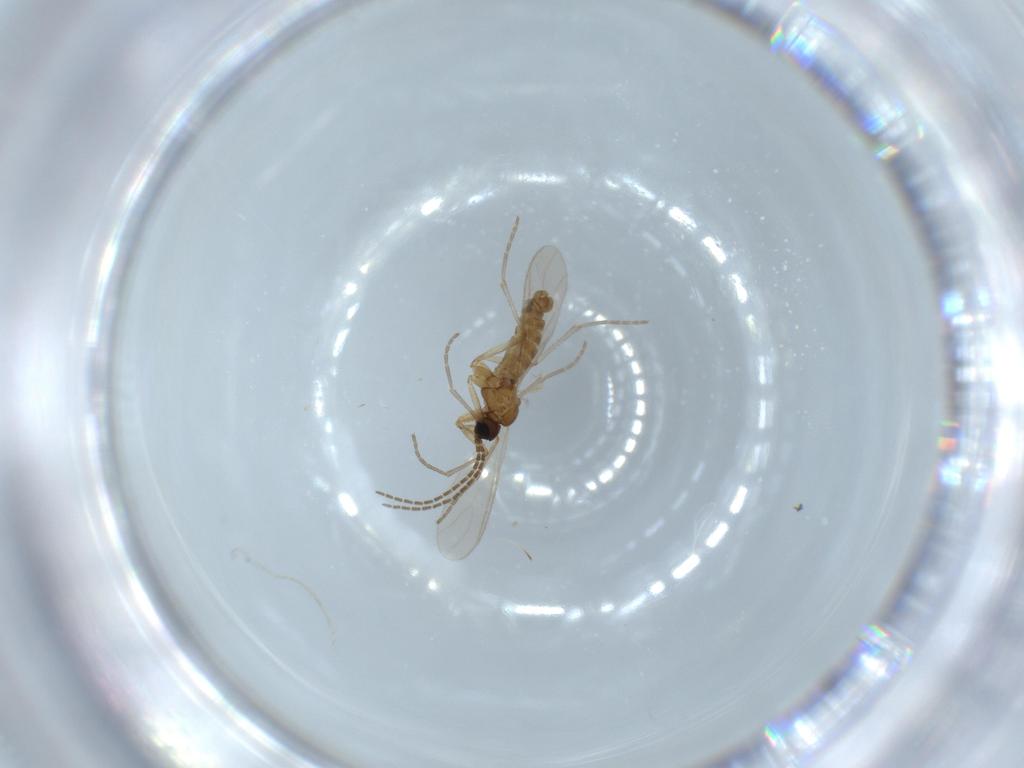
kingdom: Animalia
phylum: Arthropoda
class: Insecta
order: Diptera
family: Sciaridae
